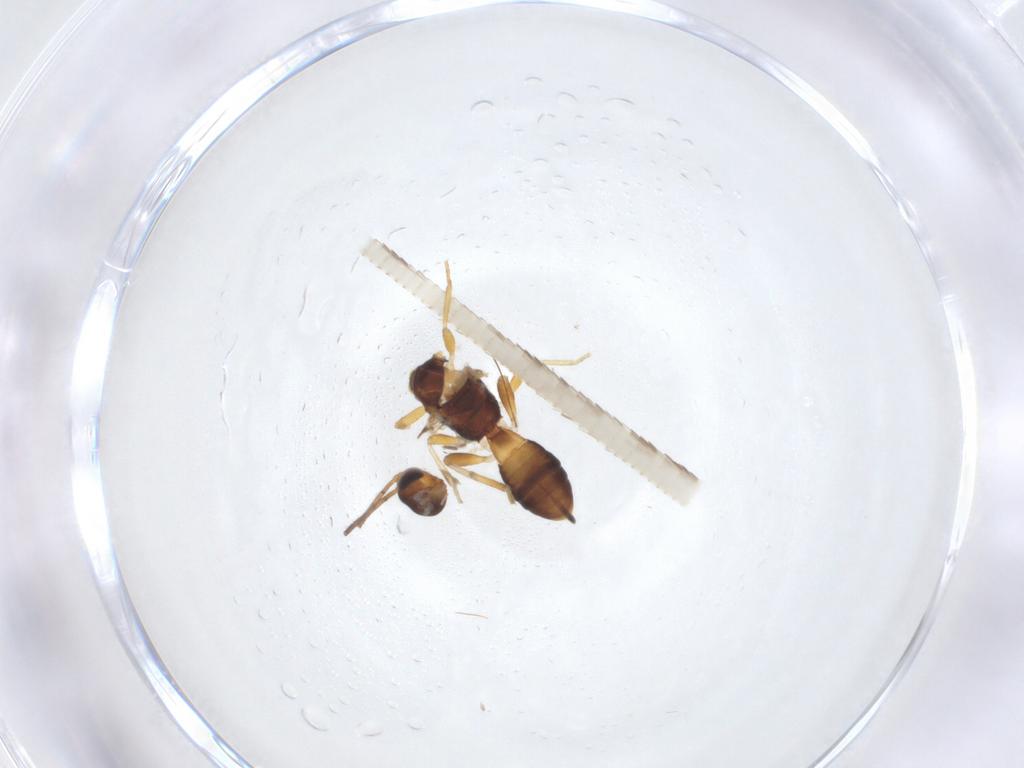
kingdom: Animalia
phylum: Arthropoda
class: Insecta
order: Hymenoptera
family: Braconidae
